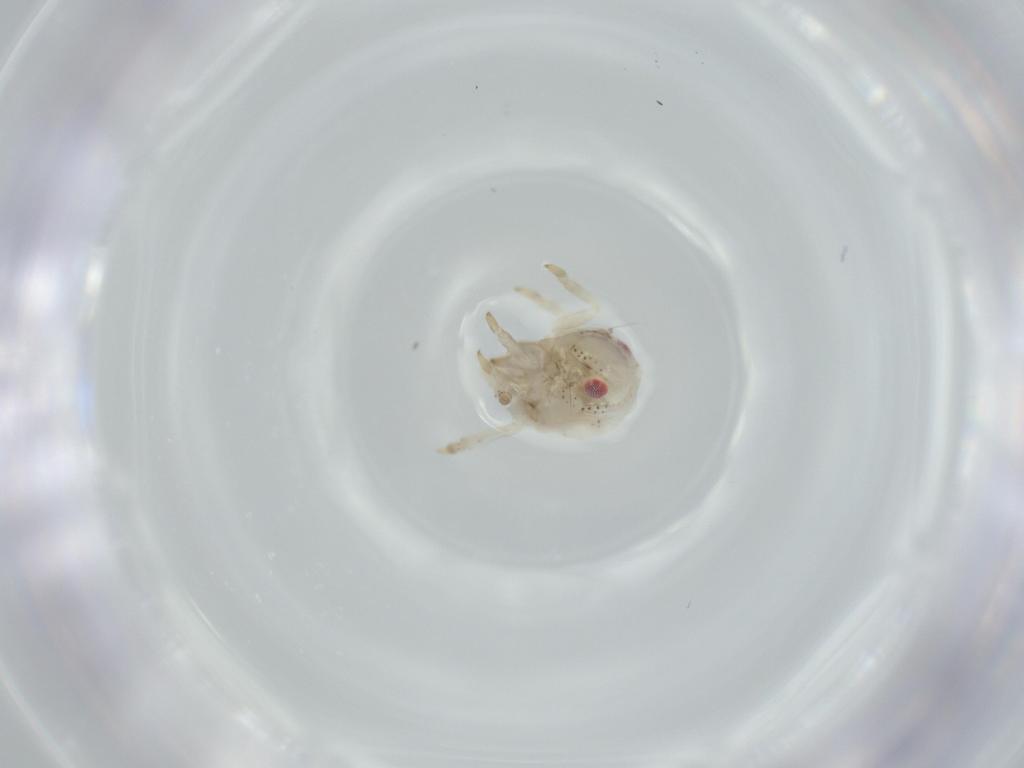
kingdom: Animalia
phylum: Arthropoda
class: Insecta
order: Hemiptera
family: Acanaloniidae
